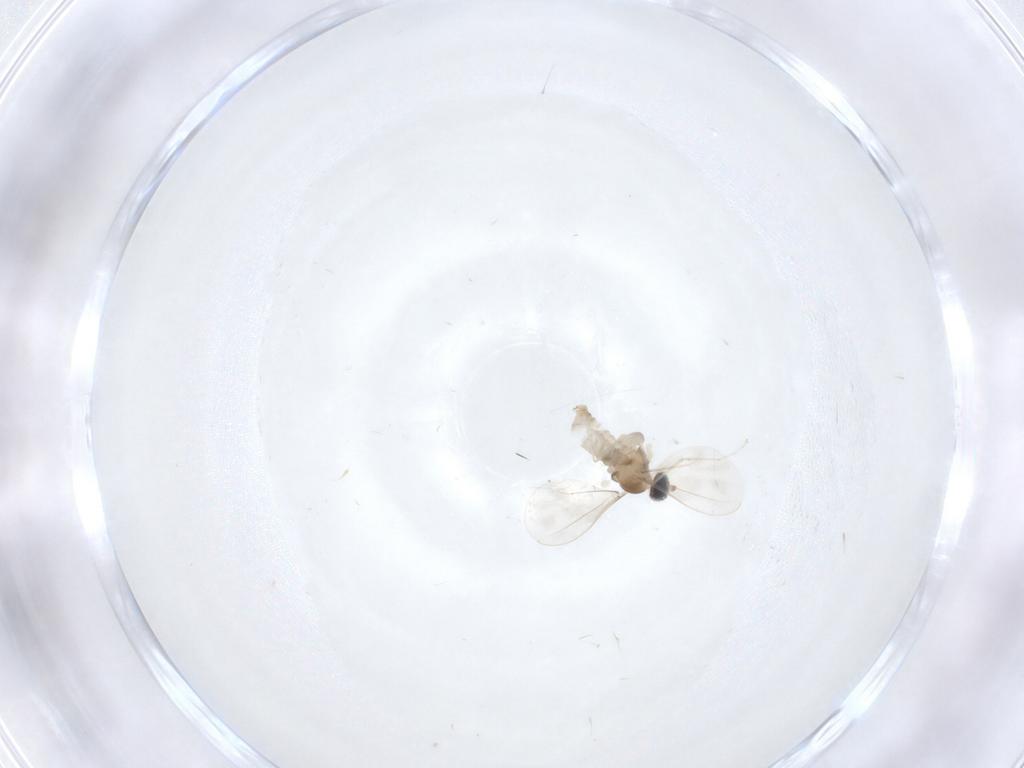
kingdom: Animalia
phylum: Arthropoda
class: Insecta
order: Diptera
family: Cecidomyiidae
